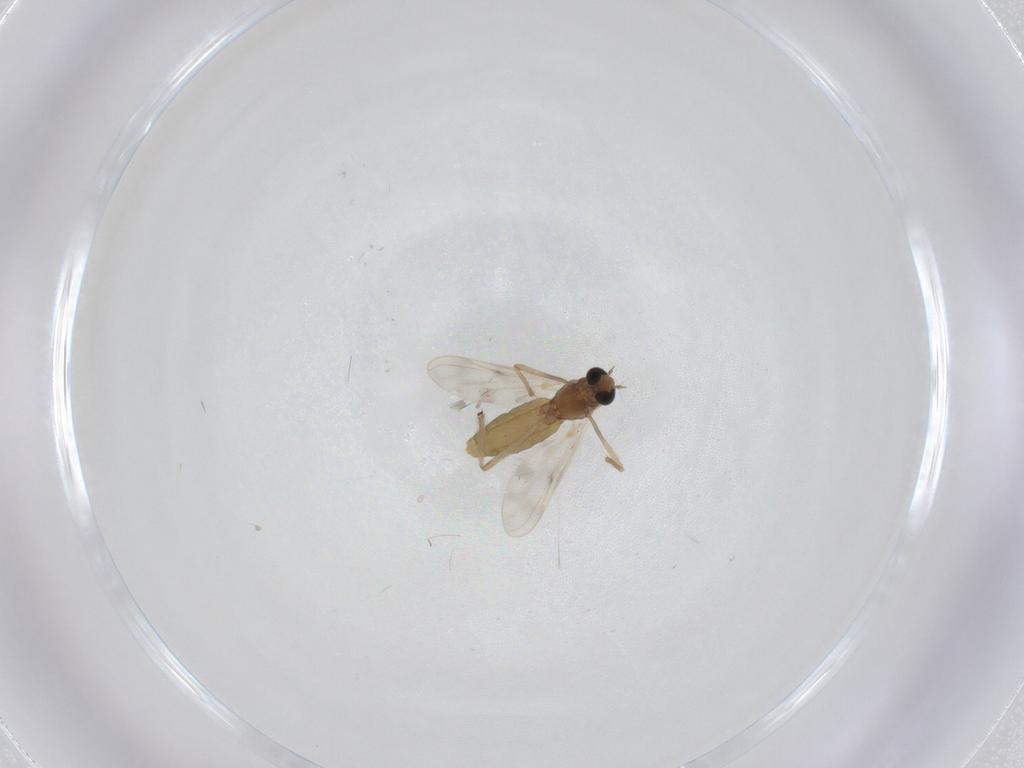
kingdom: Animalia
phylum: Arthropoda
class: Insecta
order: Diptera
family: Chironomidae
